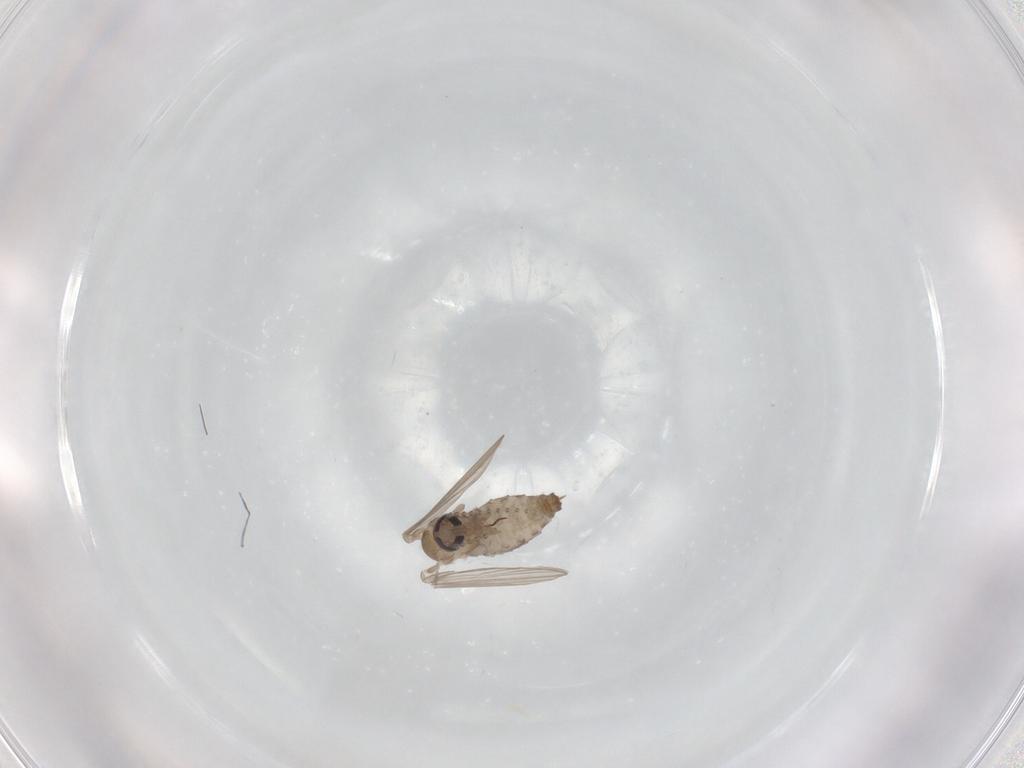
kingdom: Animalia
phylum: Arthropoda
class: Insecta
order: Diptera
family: Psychodidae
